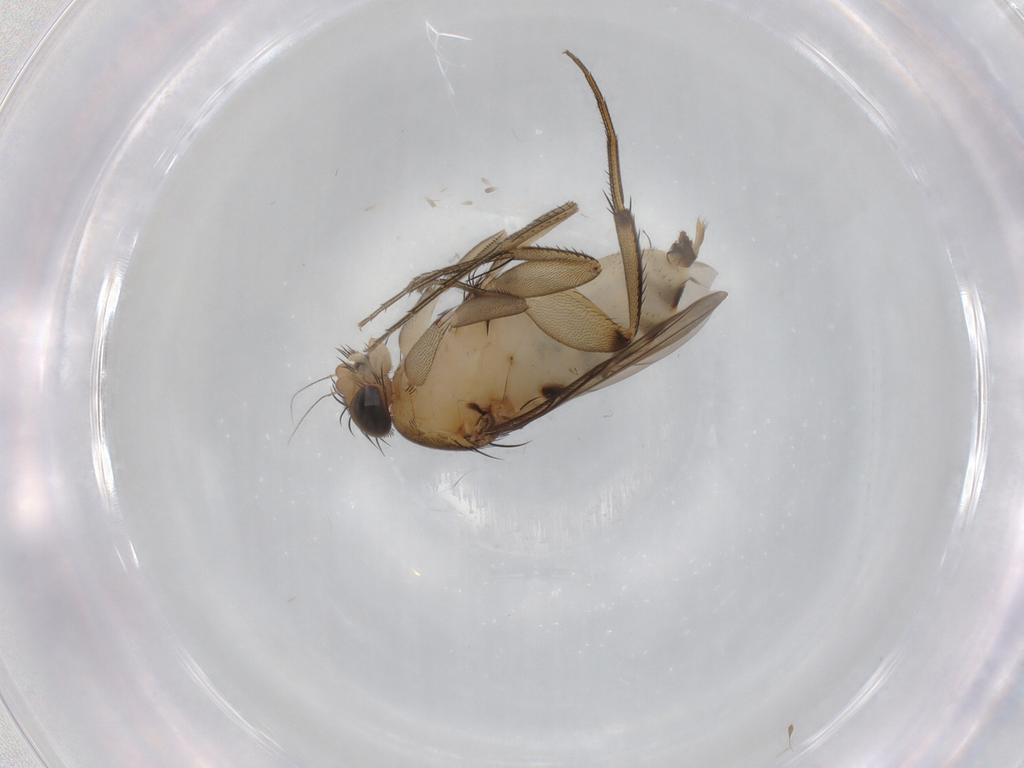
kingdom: Animalia
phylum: Arthropoda
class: Insecta
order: Diptera
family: Phoridae
